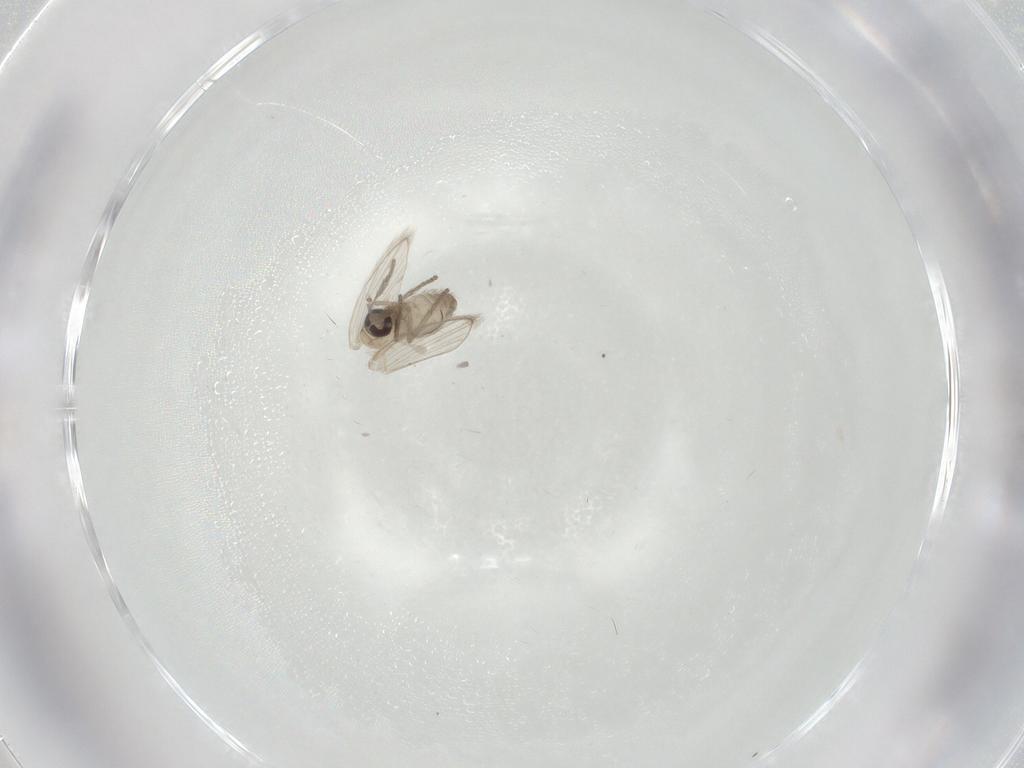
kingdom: Animalia
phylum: Arthropoda
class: Insecta
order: Diptera
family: Psychodidae
